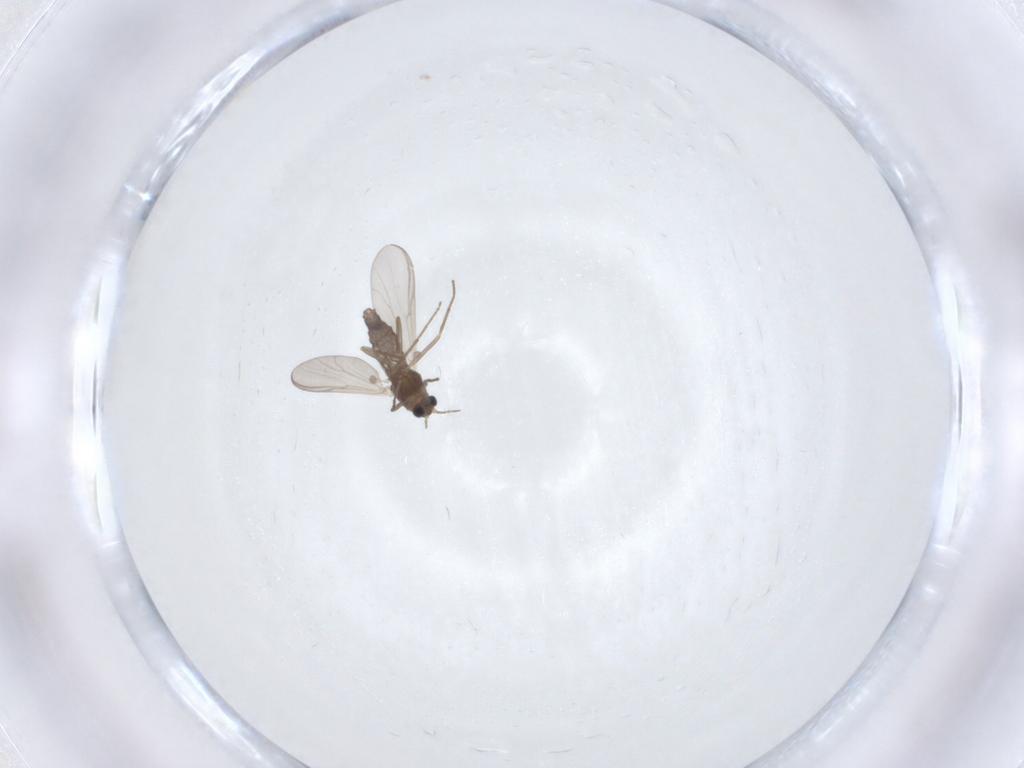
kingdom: Animalia
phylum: Arthropoda
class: Insecta
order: Diptera
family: Chironomidae
